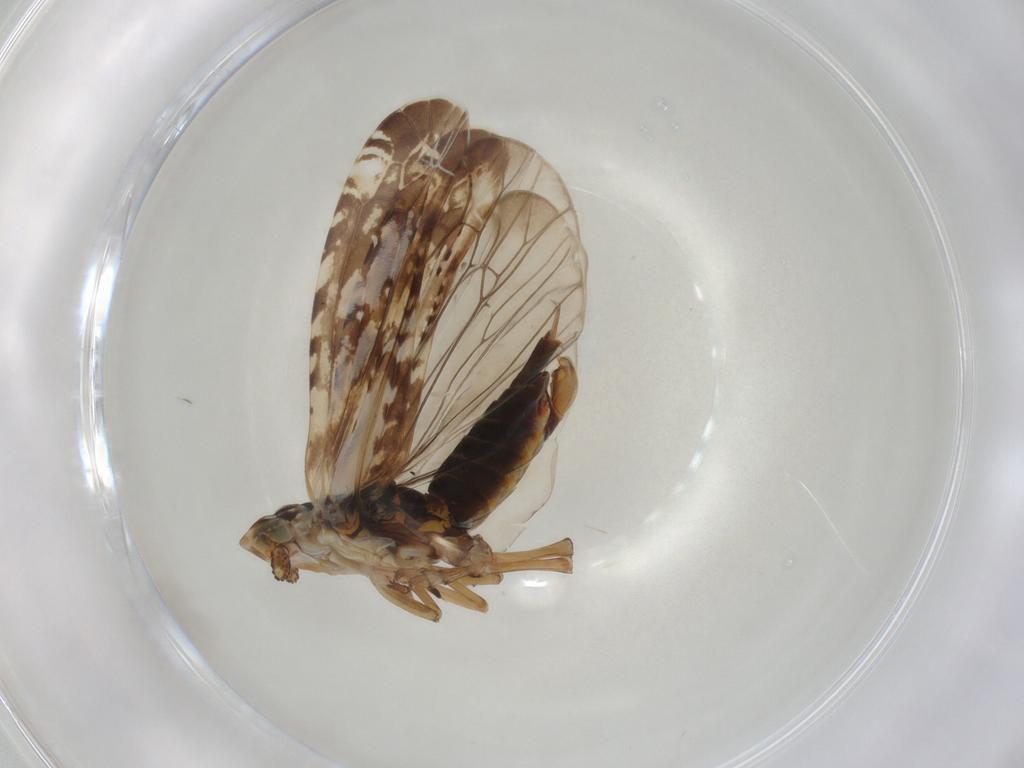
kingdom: Animalia
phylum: Arthropoda
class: Insecta
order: Hemiptera
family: Achilidae
